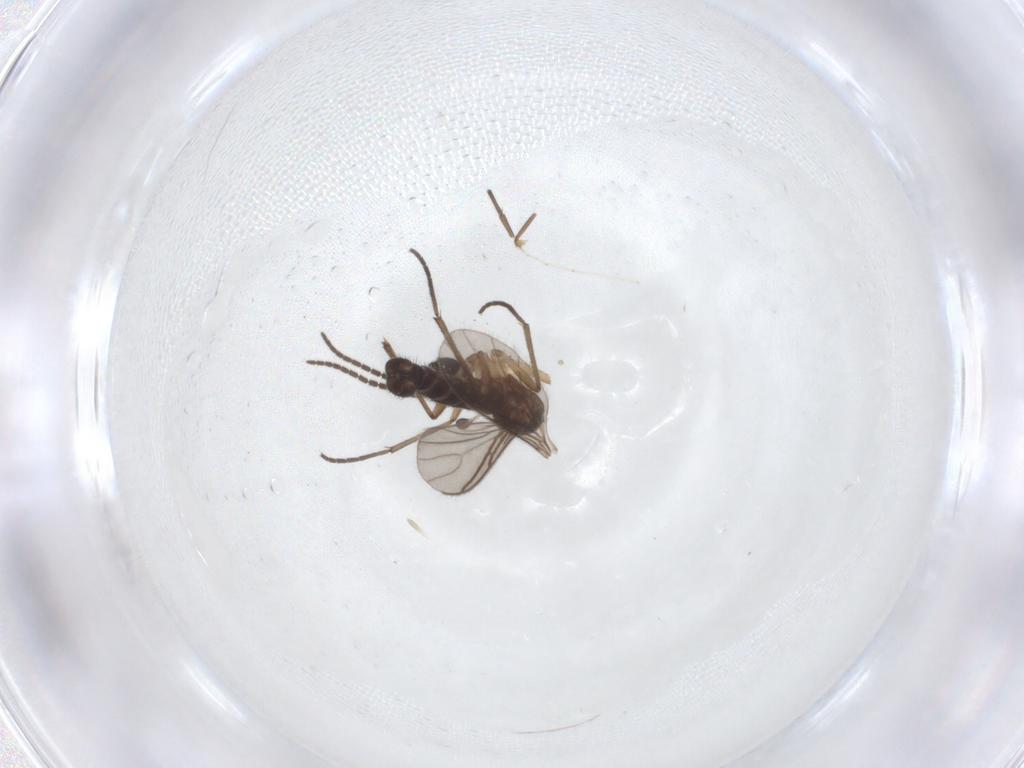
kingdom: Animalia
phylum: Arthropoda
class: Insecta
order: Diptera
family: Sciaridae
